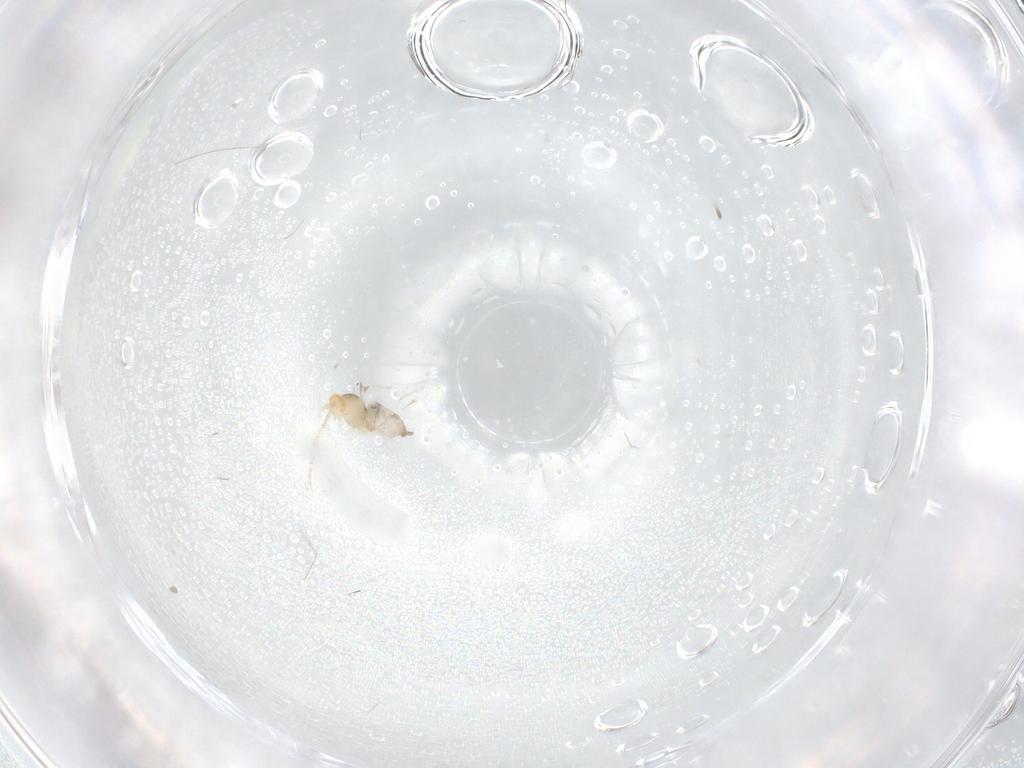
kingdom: Animalia
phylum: Arthropoda
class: Insecta
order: Diptera
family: Cecidomyiidae
